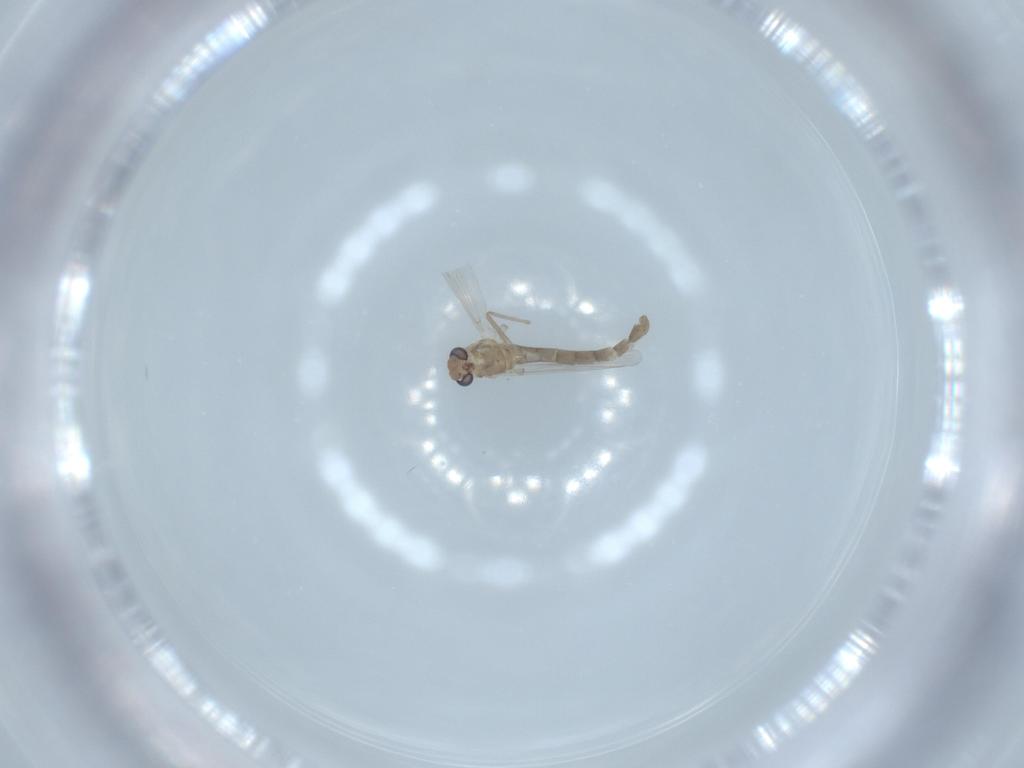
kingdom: Animalia
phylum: Arthropoda
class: Insecta
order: Diptera
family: Chironomidae
